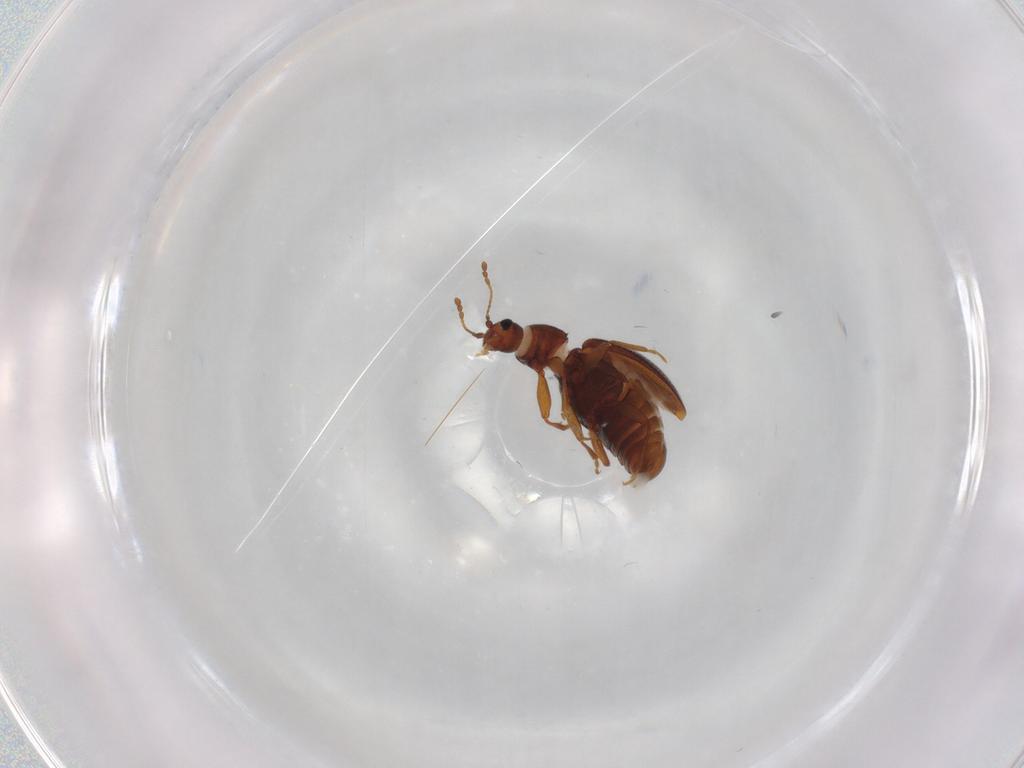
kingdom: Animalia
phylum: Arthropoda
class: Insecta
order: Coleoptera
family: Latridiidae
